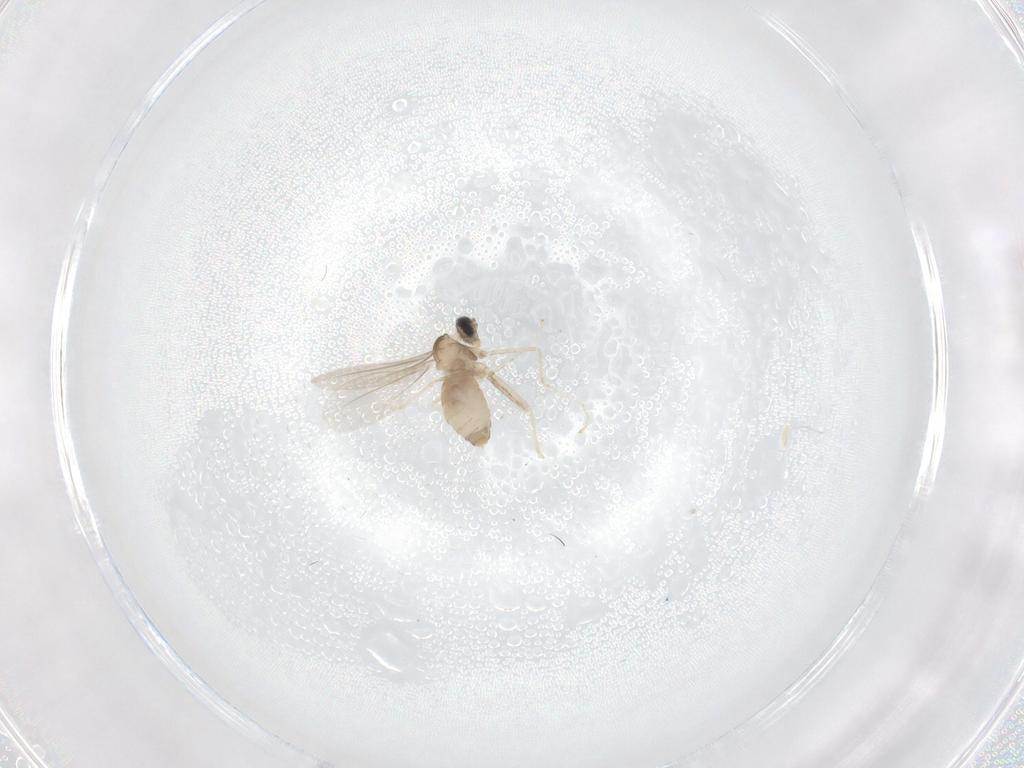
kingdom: Animalia
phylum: Arthropoda
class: Insecta
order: Diptera
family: Cecidomyiidae
